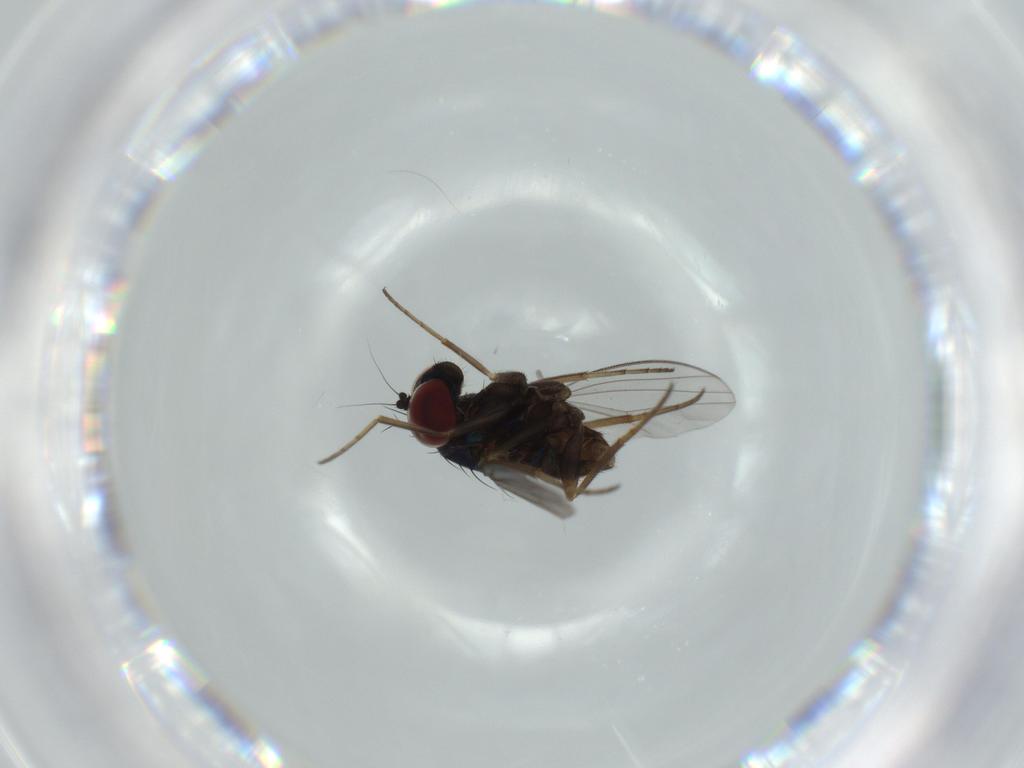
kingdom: Animalia
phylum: Arthropoda
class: Insecta
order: Diptera
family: Dolichopodidae
